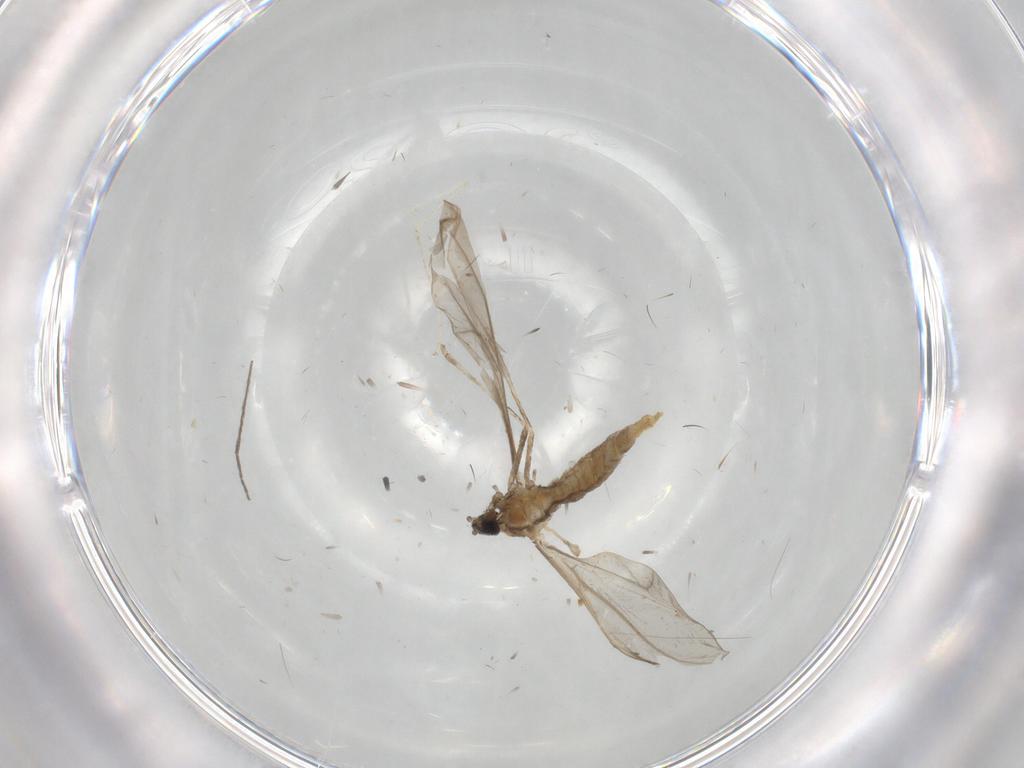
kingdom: Animalia
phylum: Arthropoda
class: Insecta
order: Diptera
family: Cecidomyiidae
